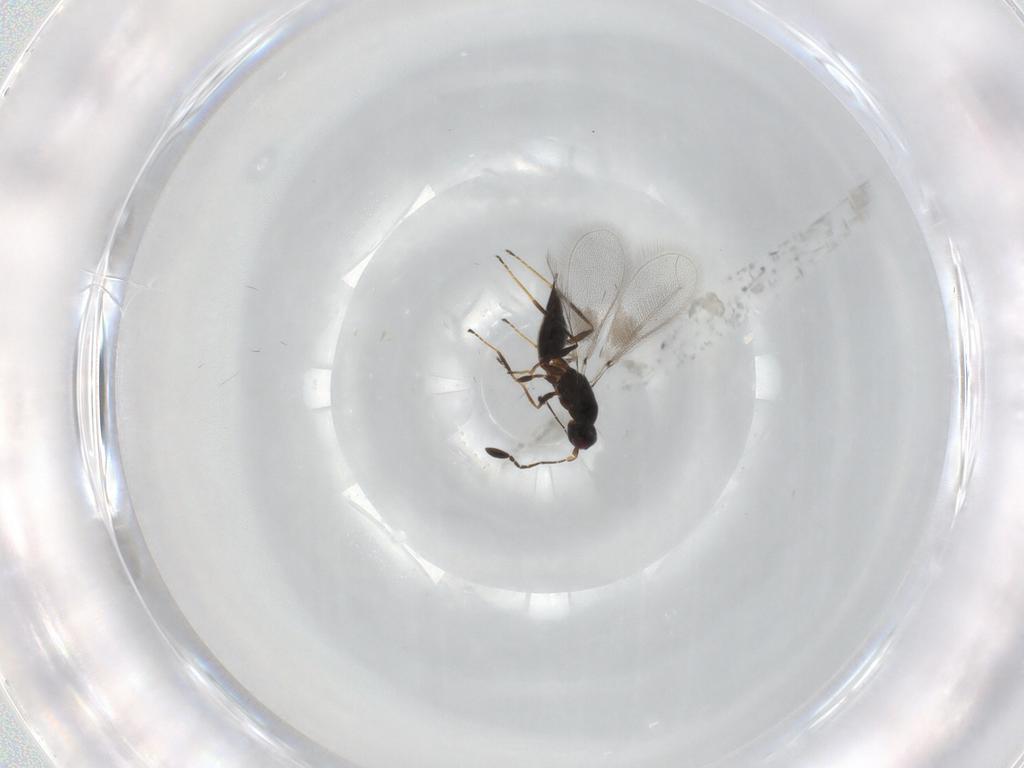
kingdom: Animalia
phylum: Arthropoda
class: Insecta
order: Hymenoptera
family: Mymaridae
